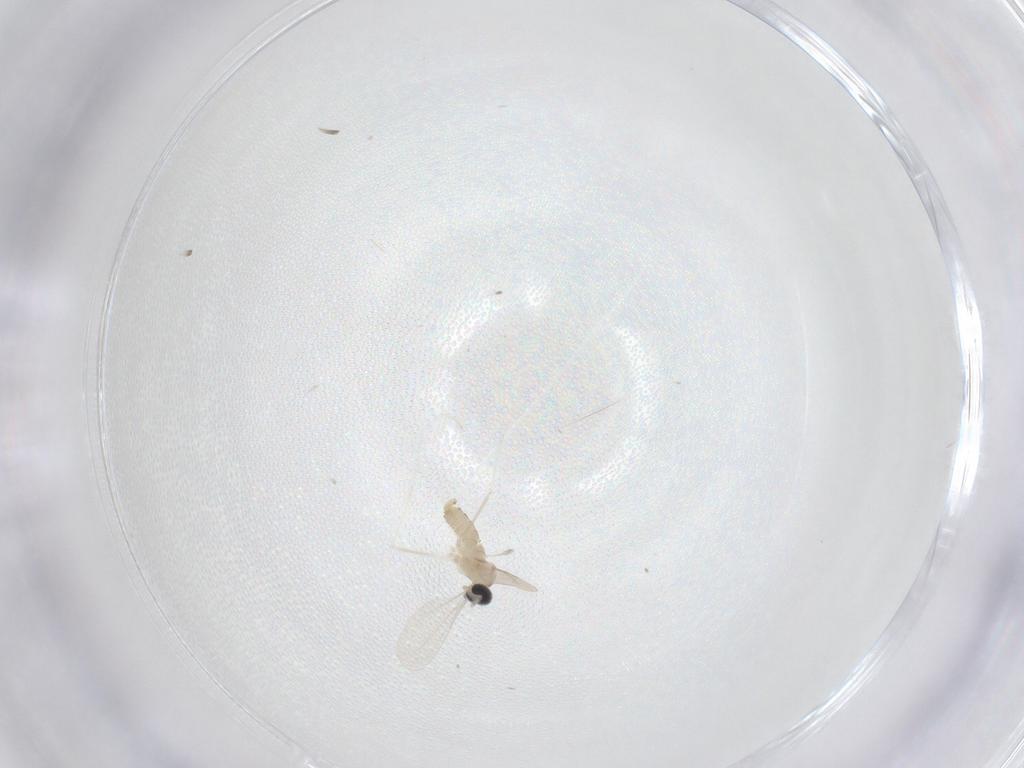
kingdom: Animalia
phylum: Arthropoda
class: Insecta
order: Diptera
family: Cecidomyiidae
